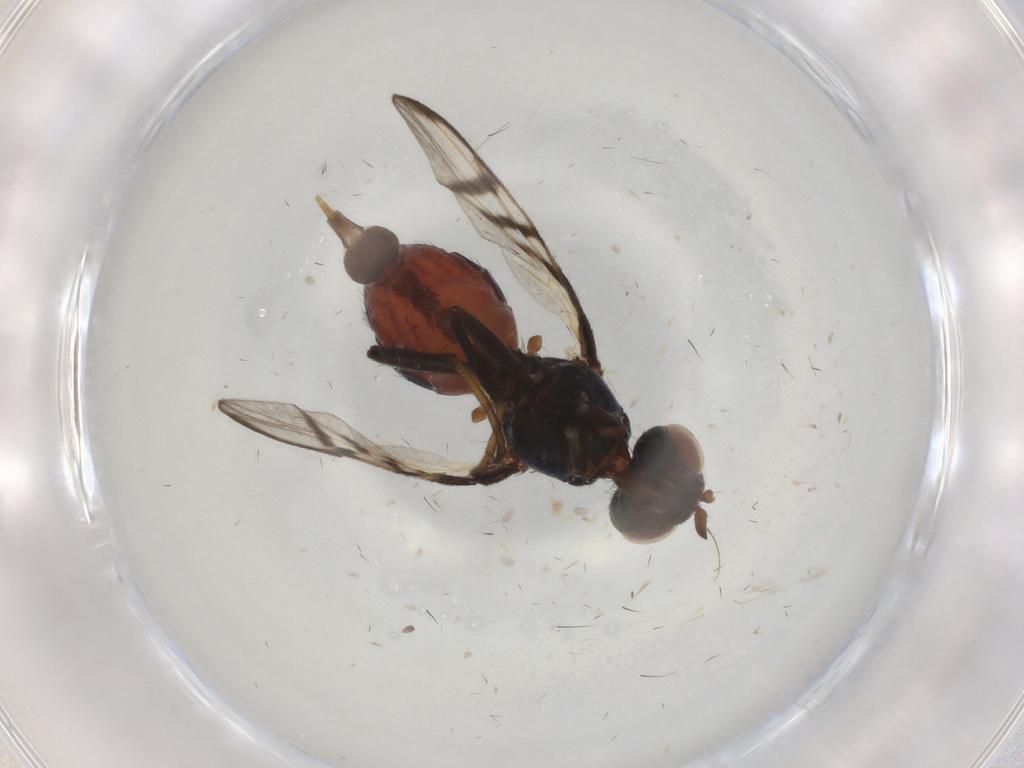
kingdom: Animalia
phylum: Arthropoda
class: Insecta
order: Diptera
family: Platystomatidae
